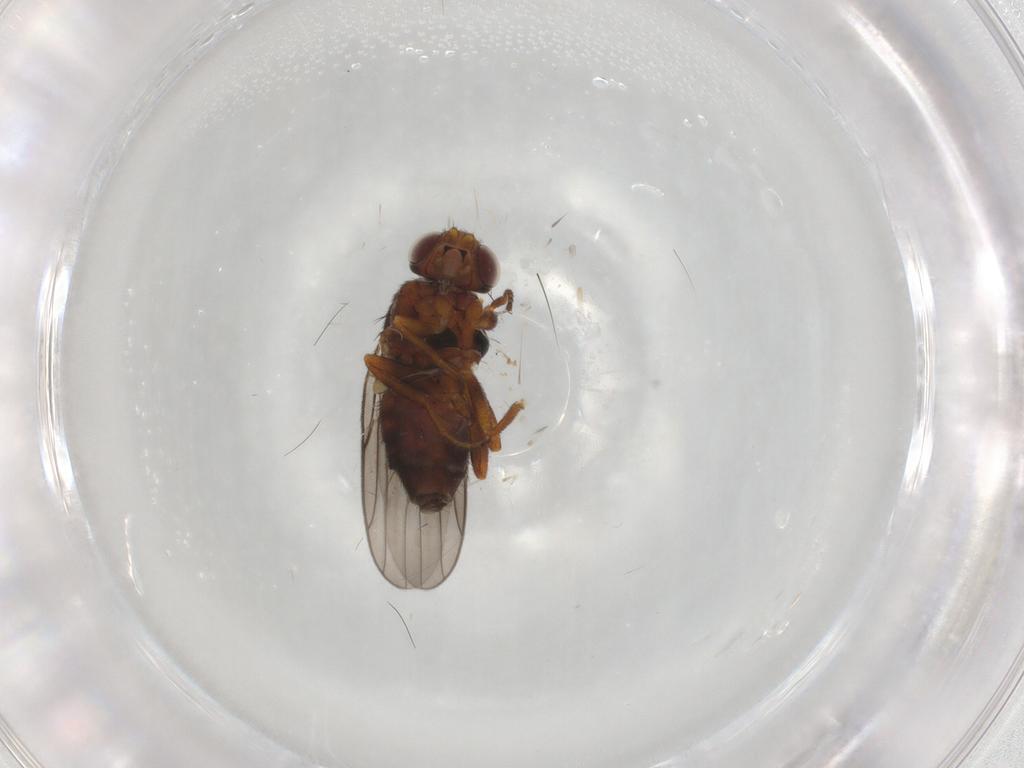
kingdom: Animalia
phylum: Arthropoda
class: Insecta
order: Diptera
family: Chloropidae
